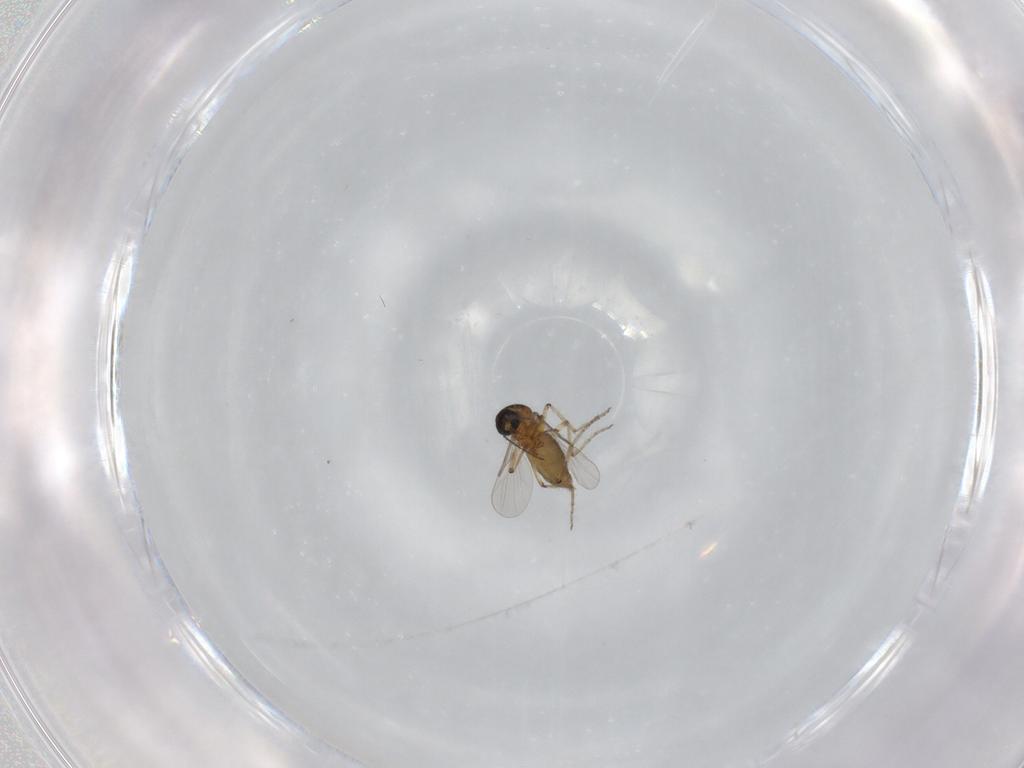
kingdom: Animalia
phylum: Arthropoda
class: Insecta
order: Diptera
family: Ceratopogonidae
